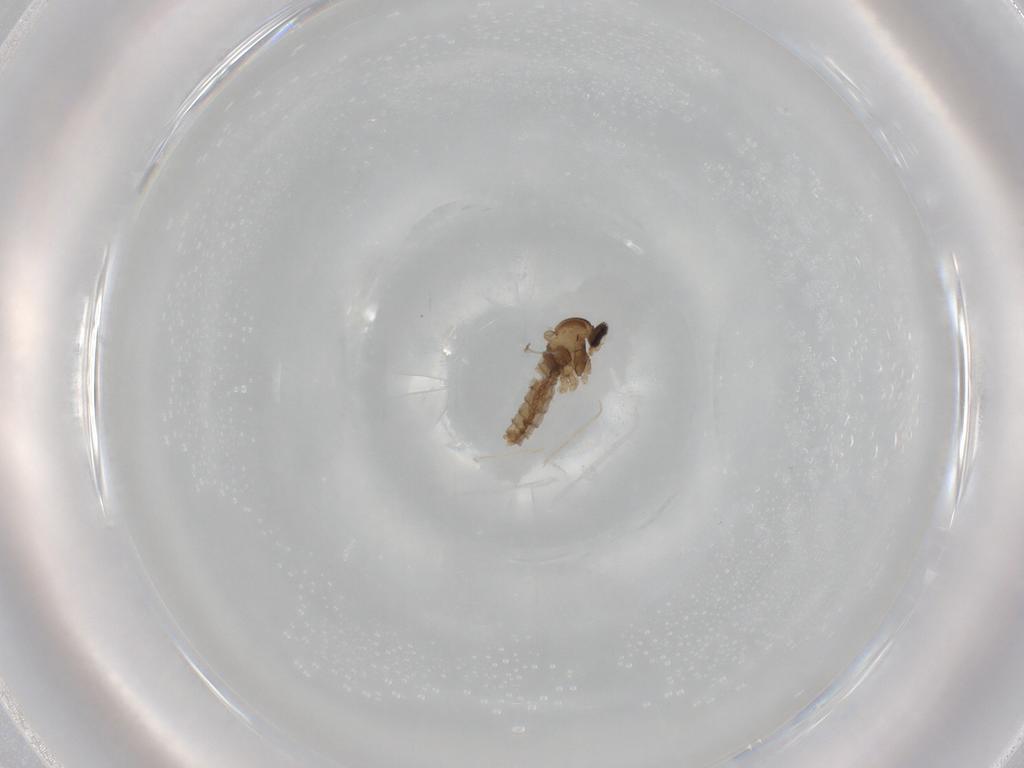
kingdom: Animalia
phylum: Arthropoda
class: Insecta
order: Diptera
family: Cecidomyiidae
